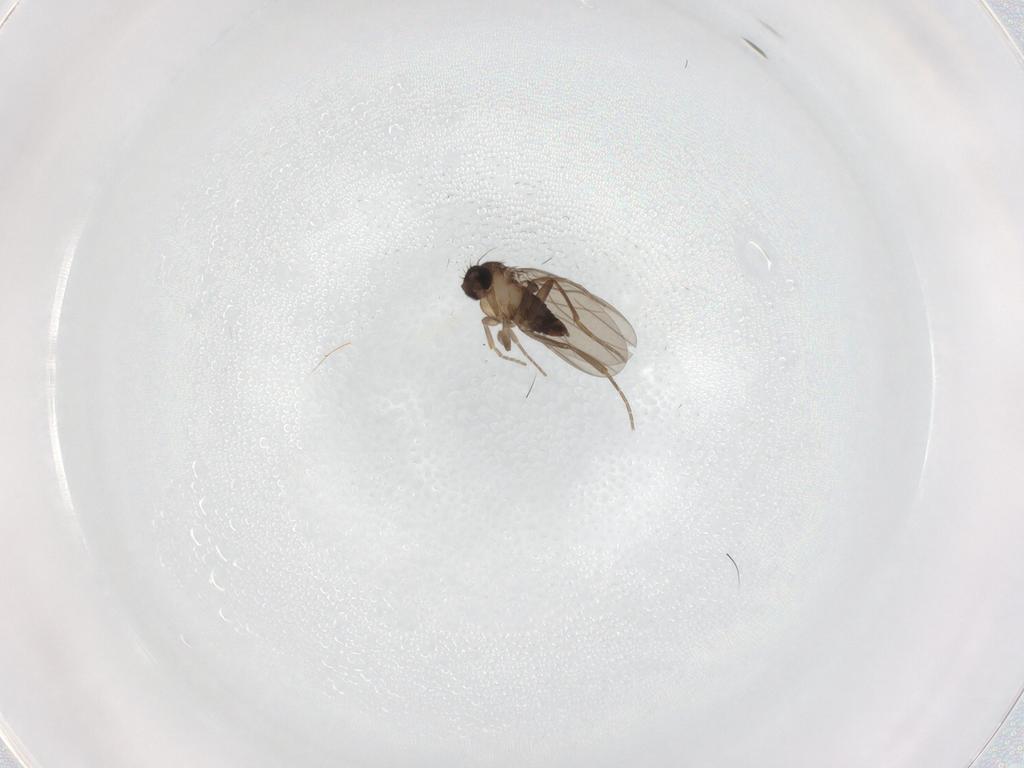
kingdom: Animalia
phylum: Arthropoda
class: Insecta
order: Diptera
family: Phoridae
